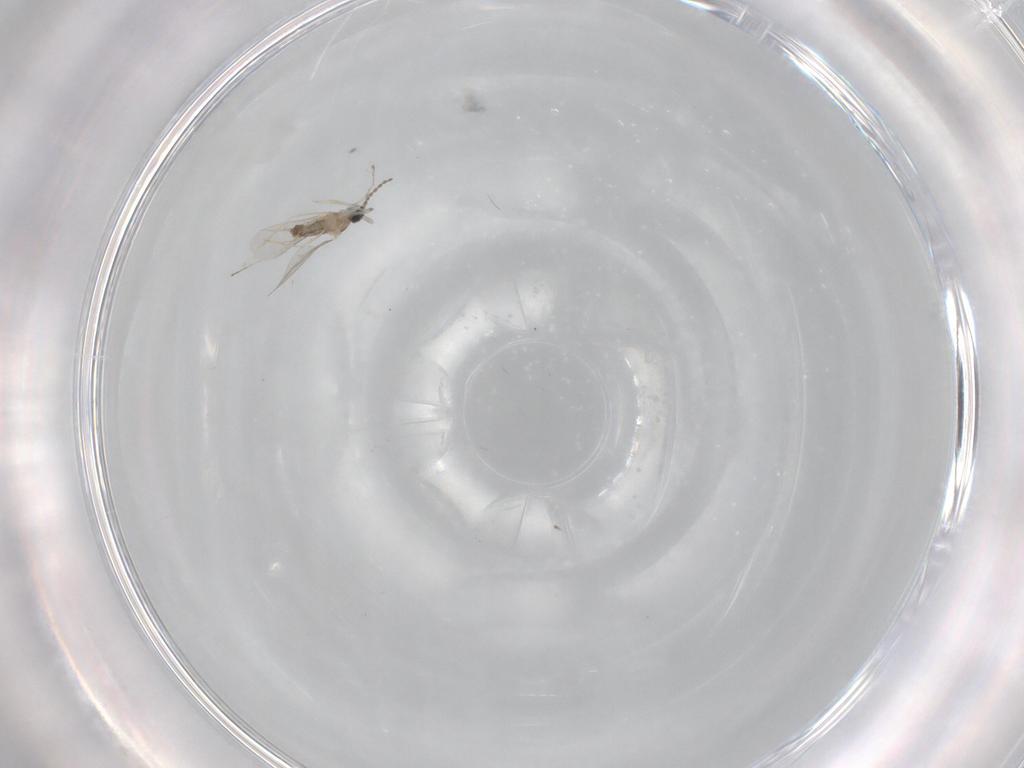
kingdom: Animalia
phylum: Arthropoda
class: Insecta
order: Diptera
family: Cecidomyiidae
